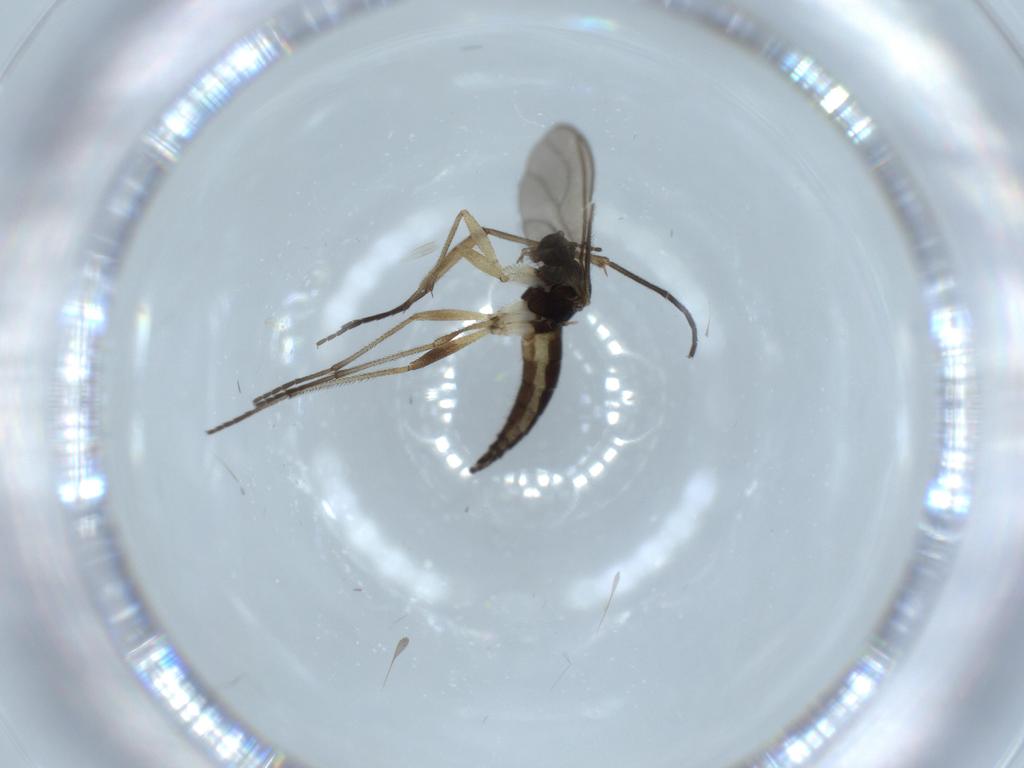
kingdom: Animalia
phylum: Arthropoda
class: Insecta
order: Diptera
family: Sciaridae
